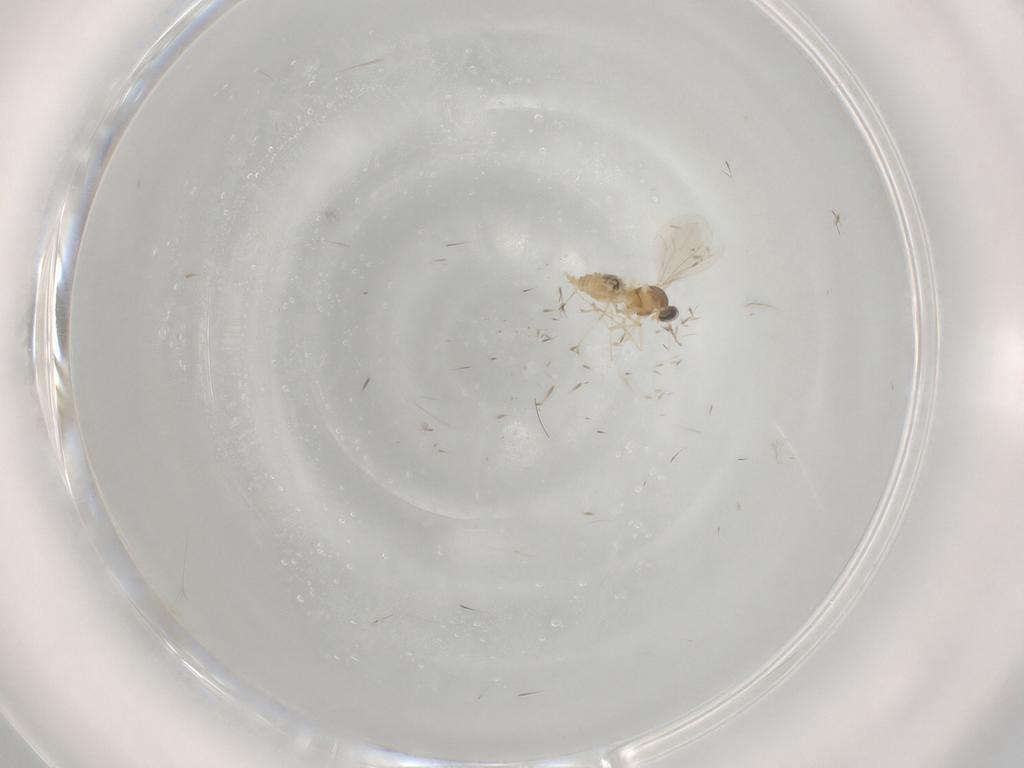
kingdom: Animalia
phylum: Arthropoda
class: Insecta
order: Diptera
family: Cecidomyiidae
